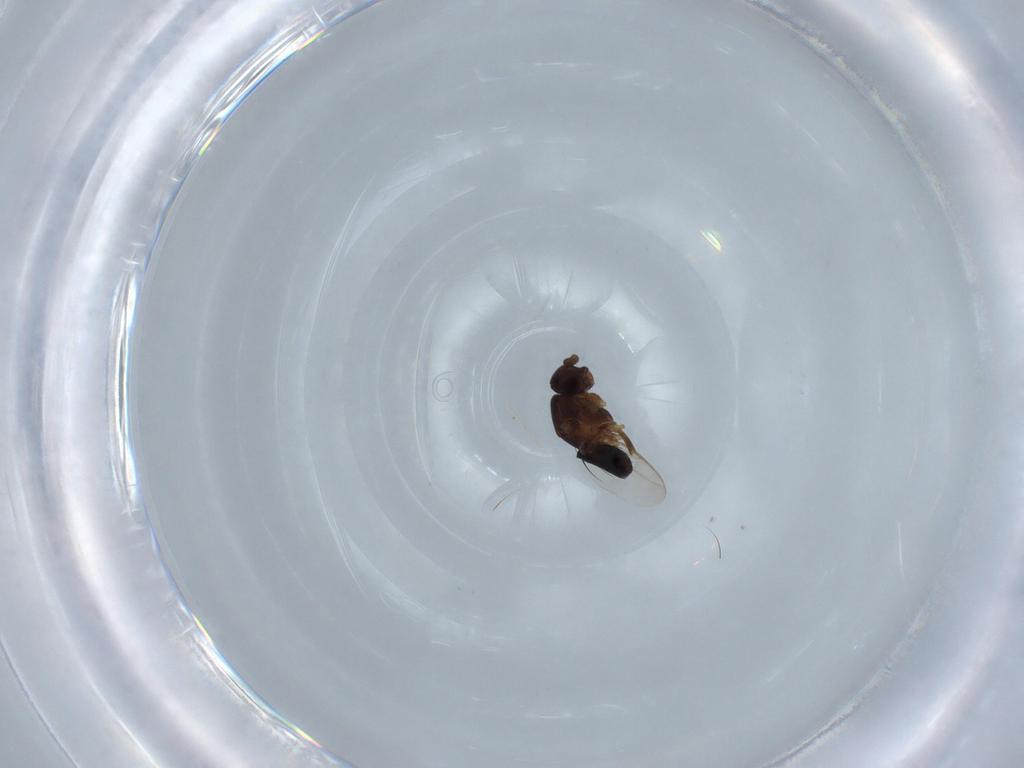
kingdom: Animalia
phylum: Arthropoda
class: Insecta
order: Diptera
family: Sphaeroceridae
